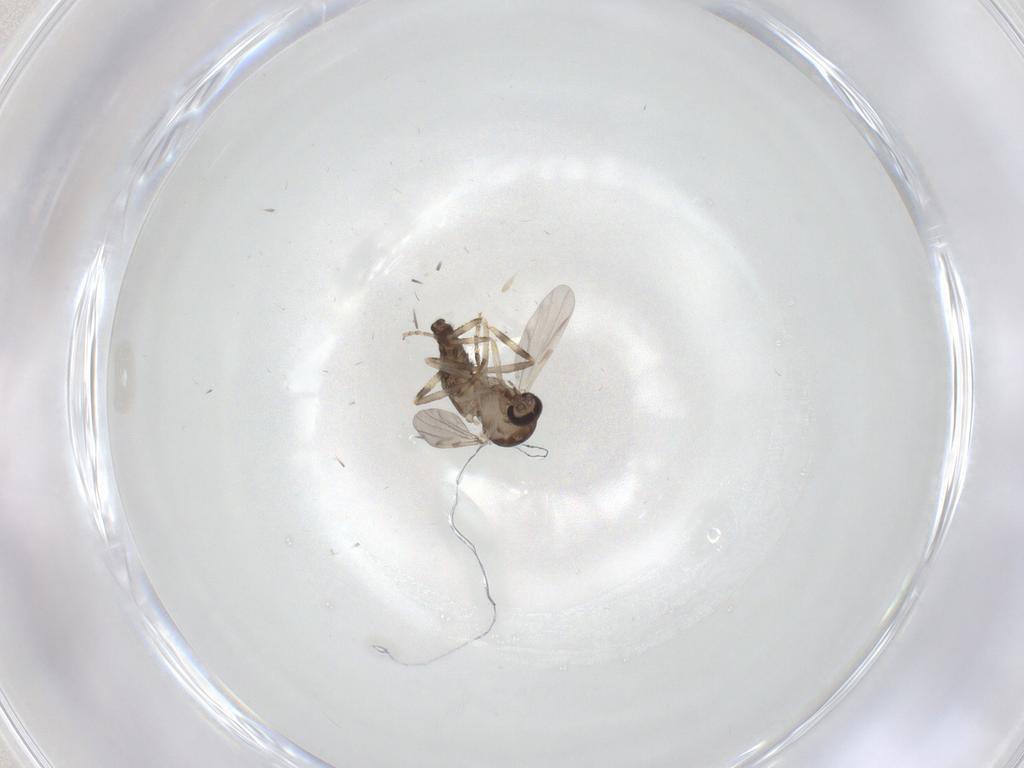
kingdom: Animalia
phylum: Arthropoda
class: Insecta
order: Diptera
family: Ceratopogonidae
